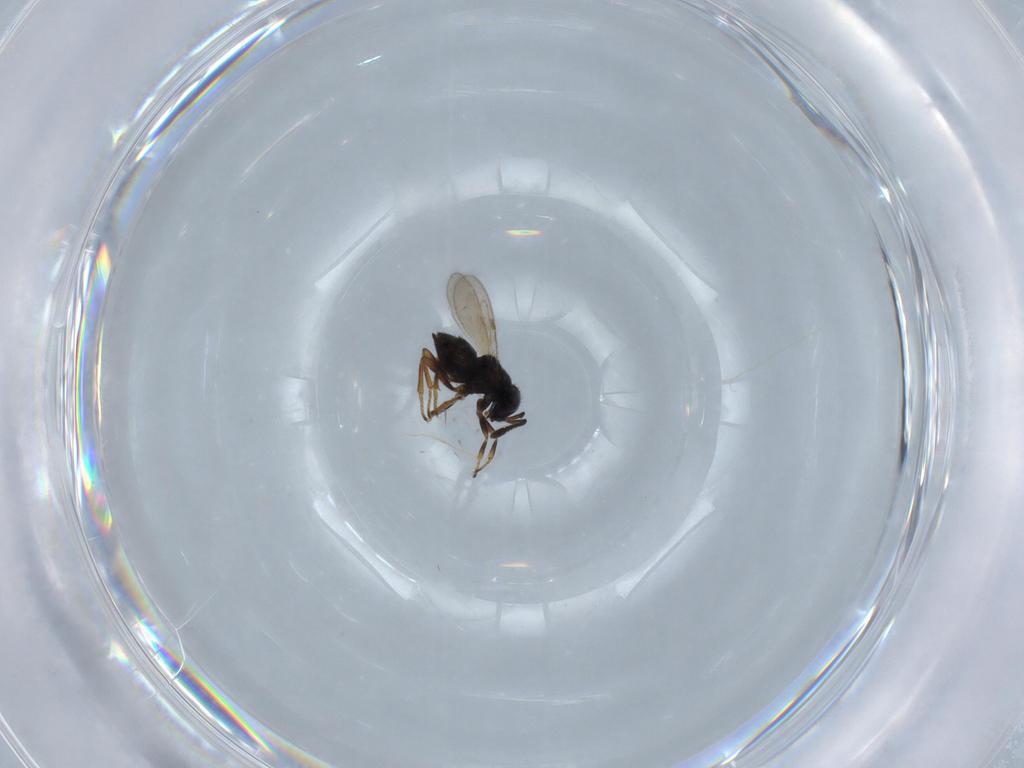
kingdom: Animalia
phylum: Arthropoda
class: Insecta
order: Hymenoptera
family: Encyrtidae
